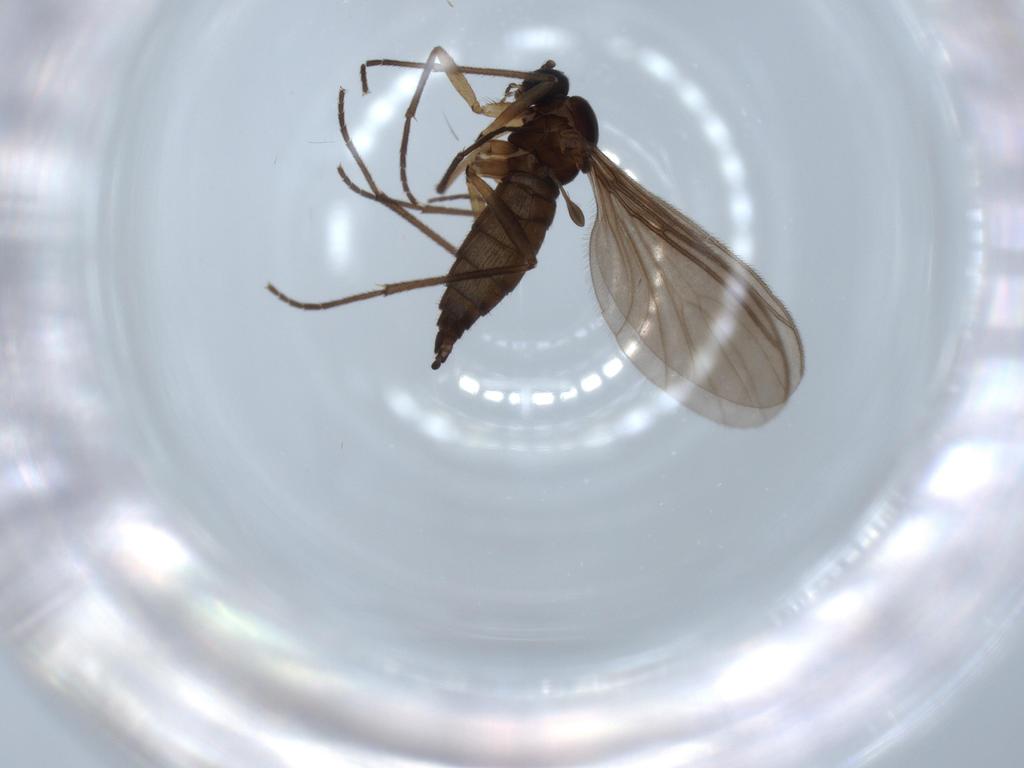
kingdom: Animalia
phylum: Arthropoda
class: Insecta
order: Diptera
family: Sciaridae
